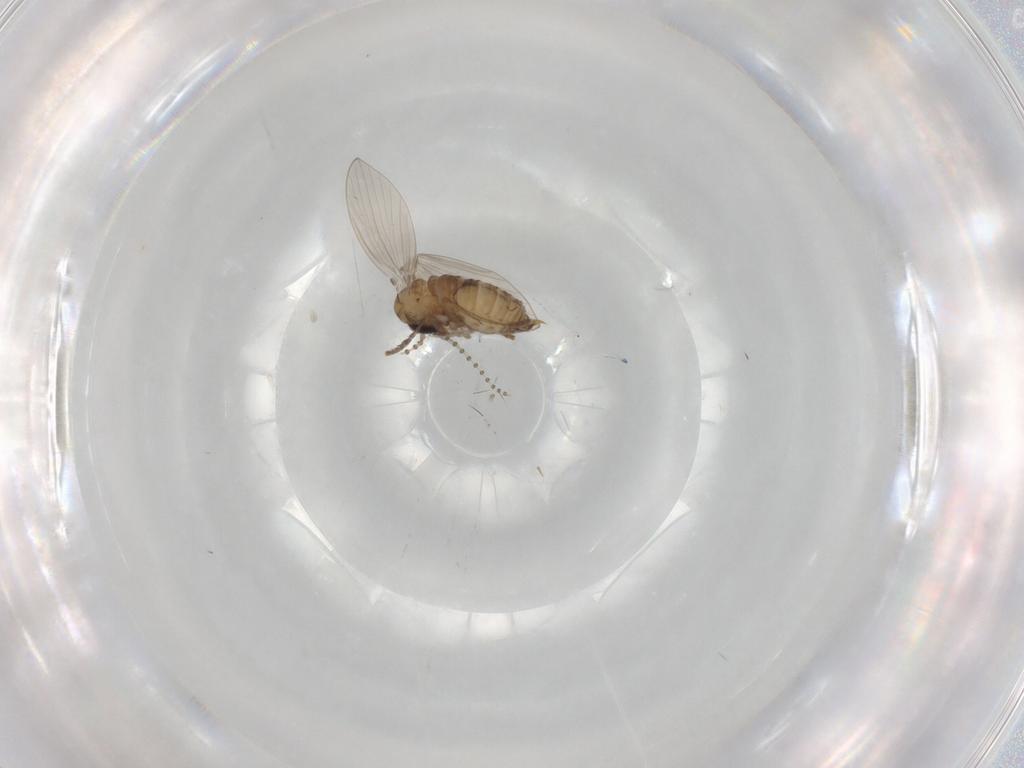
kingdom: Animalia
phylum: Arthropoda
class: Insecta
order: Diptera
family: Psychodidae
